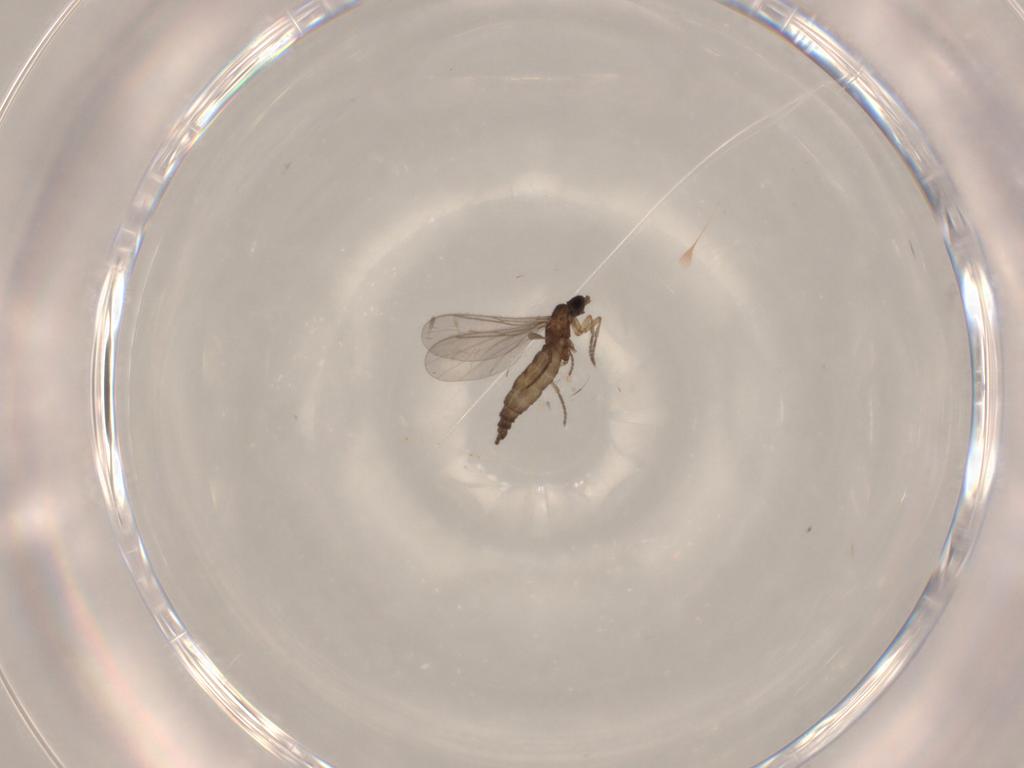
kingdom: Animalia
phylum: Arthropoda
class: Insecta
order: Diptera
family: Sciaridae
